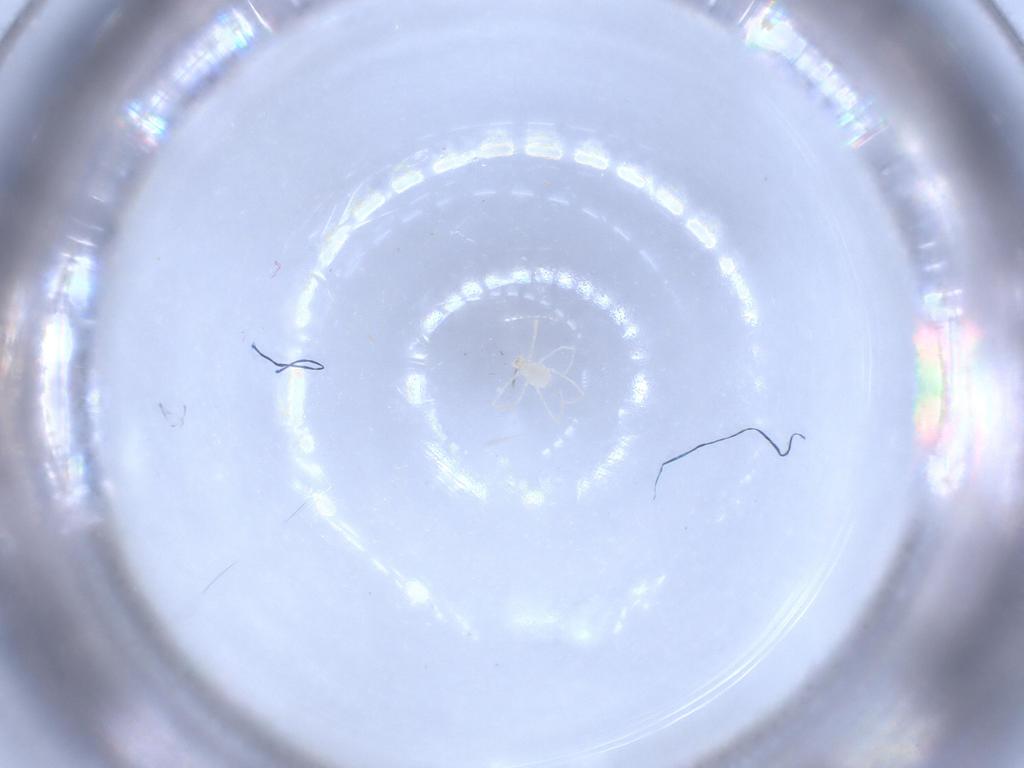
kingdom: Animalia
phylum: Arthropoda
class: Arachnida
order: Trombidiformes
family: Erythraeidae
